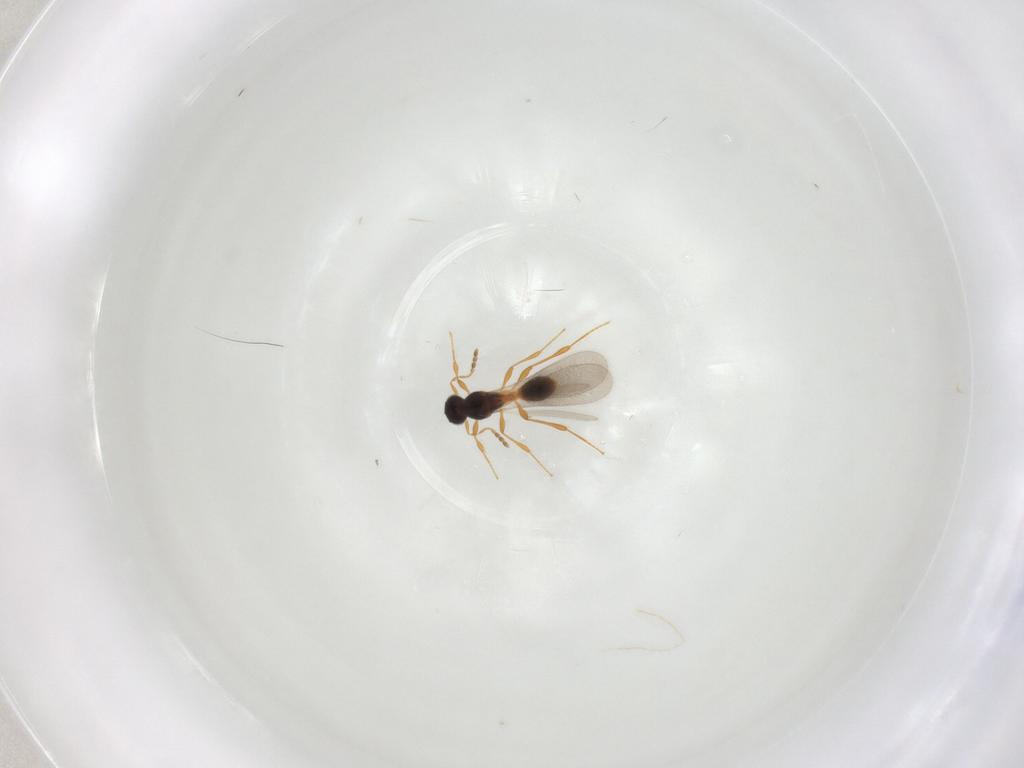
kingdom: Animalia
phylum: Arthropoda
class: Insecta
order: Hymenoptera
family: Platygastridae
